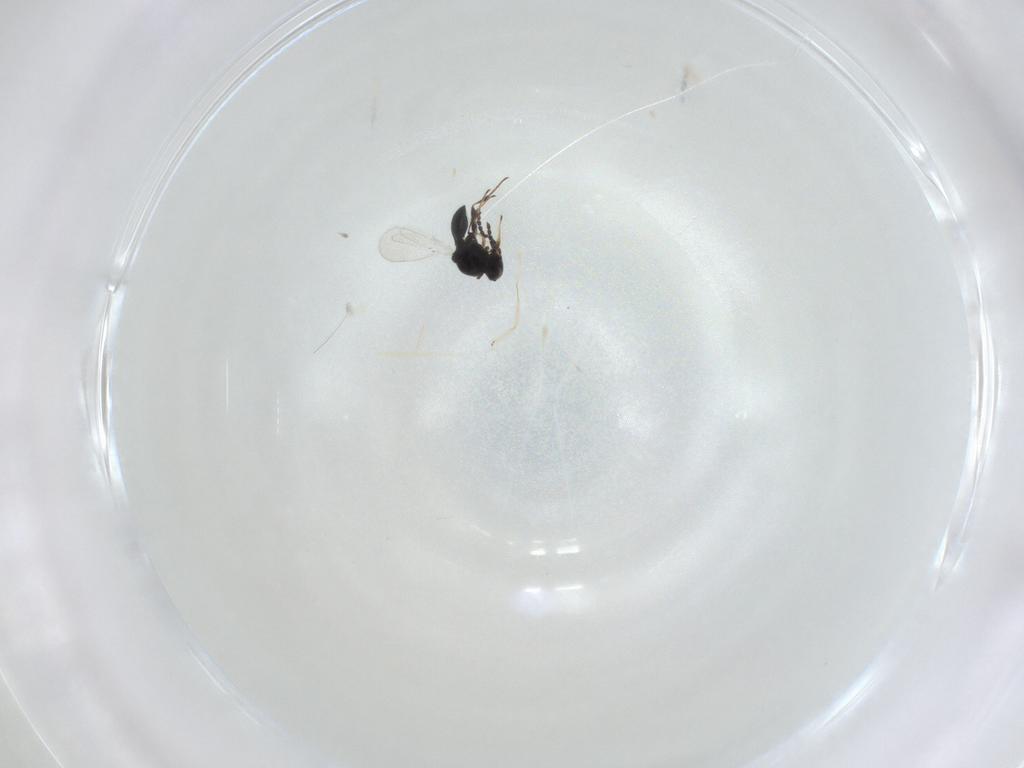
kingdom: Animalia
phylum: Arthropoda
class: Insecta
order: Hymenoptera
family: Platygastridae
